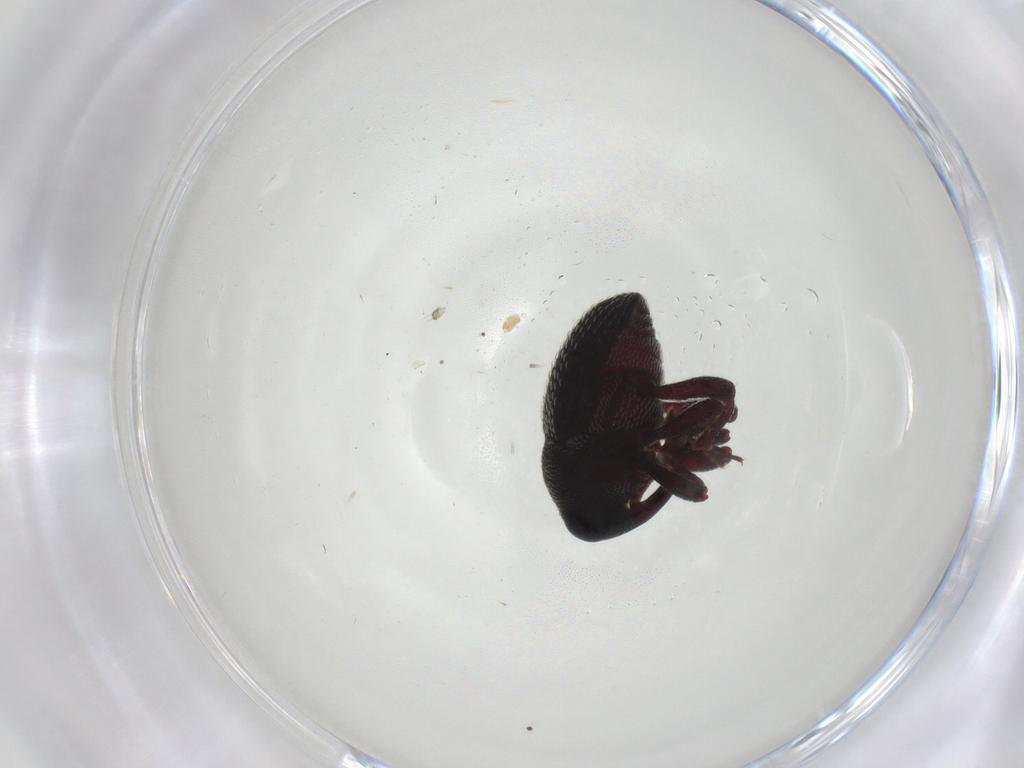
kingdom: Animalia
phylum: Arthropoda
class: Insecta
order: Coleoptera
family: Curculionidae
